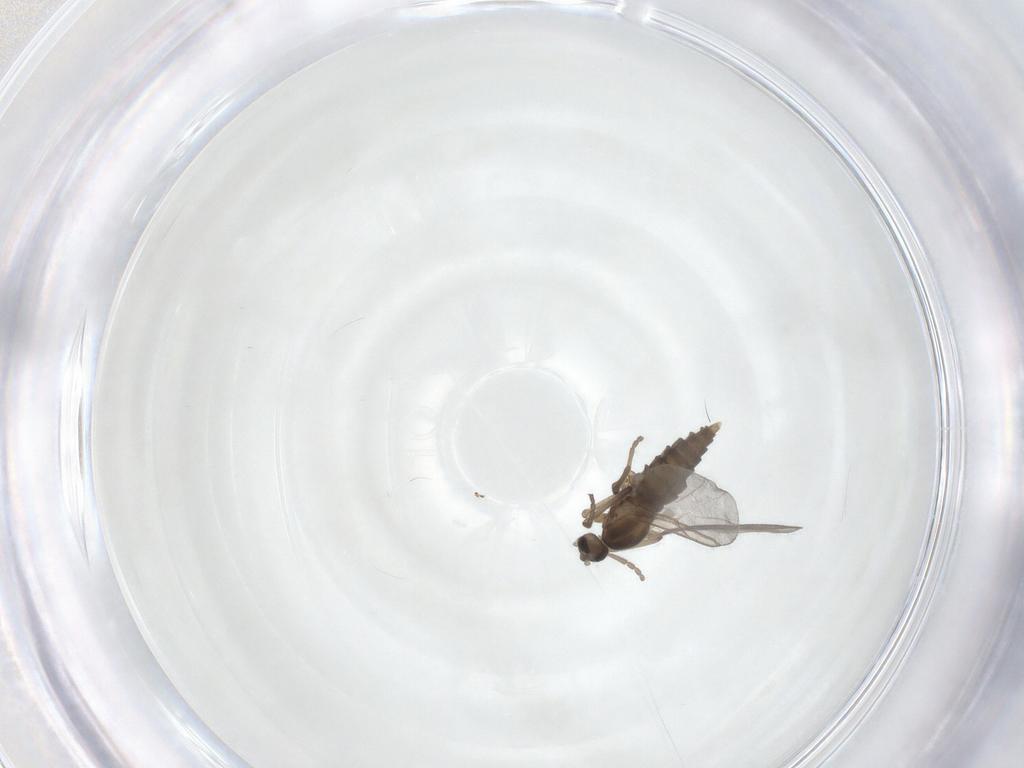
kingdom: Animalia
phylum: Arthropoda
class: Insecta
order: Diptera
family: Cecidomyiidae
